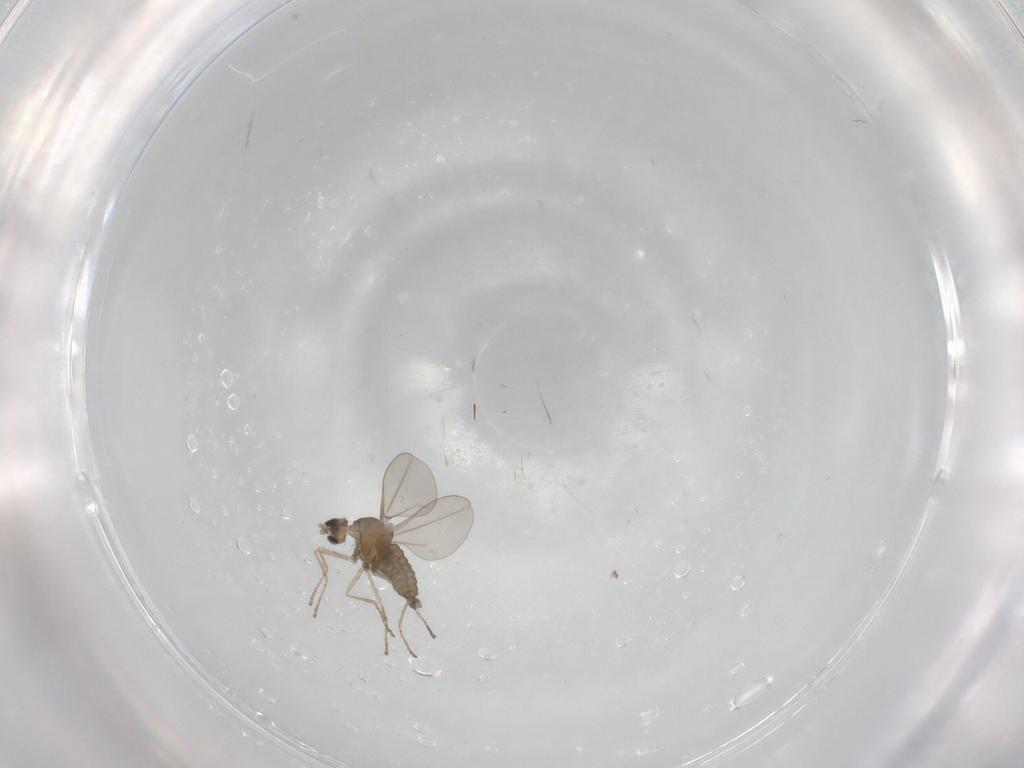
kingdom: Animalia
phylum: Arthropoda
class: Insecta
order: Diptera
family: Cecidomyiidae
